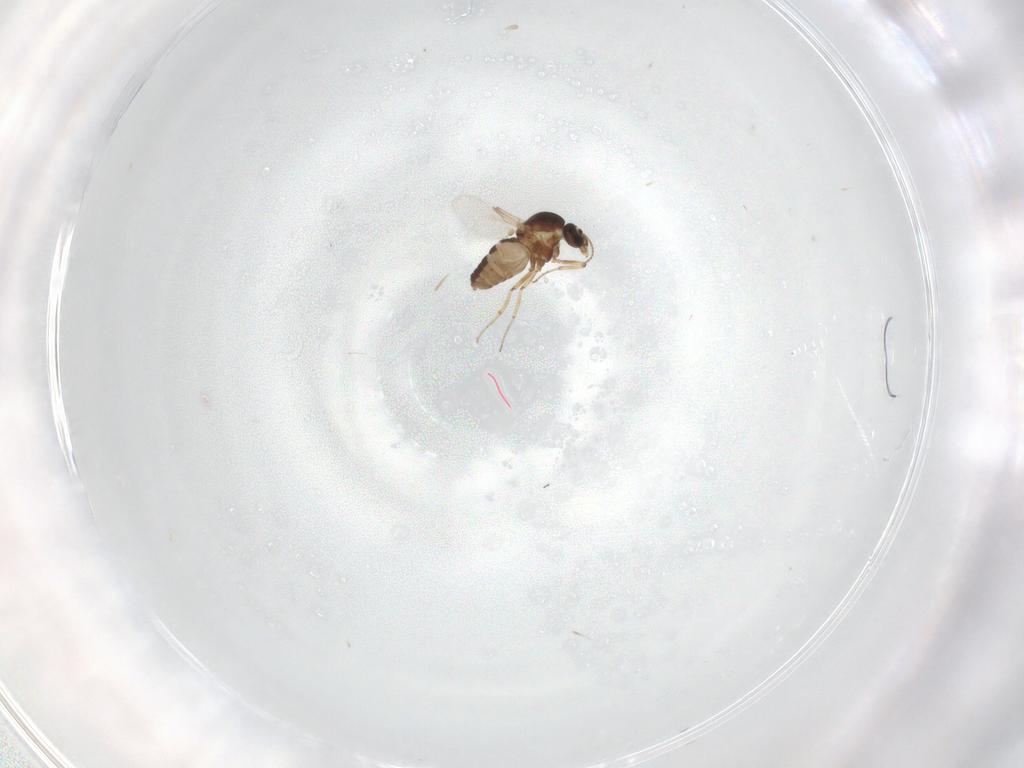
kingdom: Animalia
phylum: Arthropoda
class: Insecta
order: Diptera
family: Ceratopogonidae
